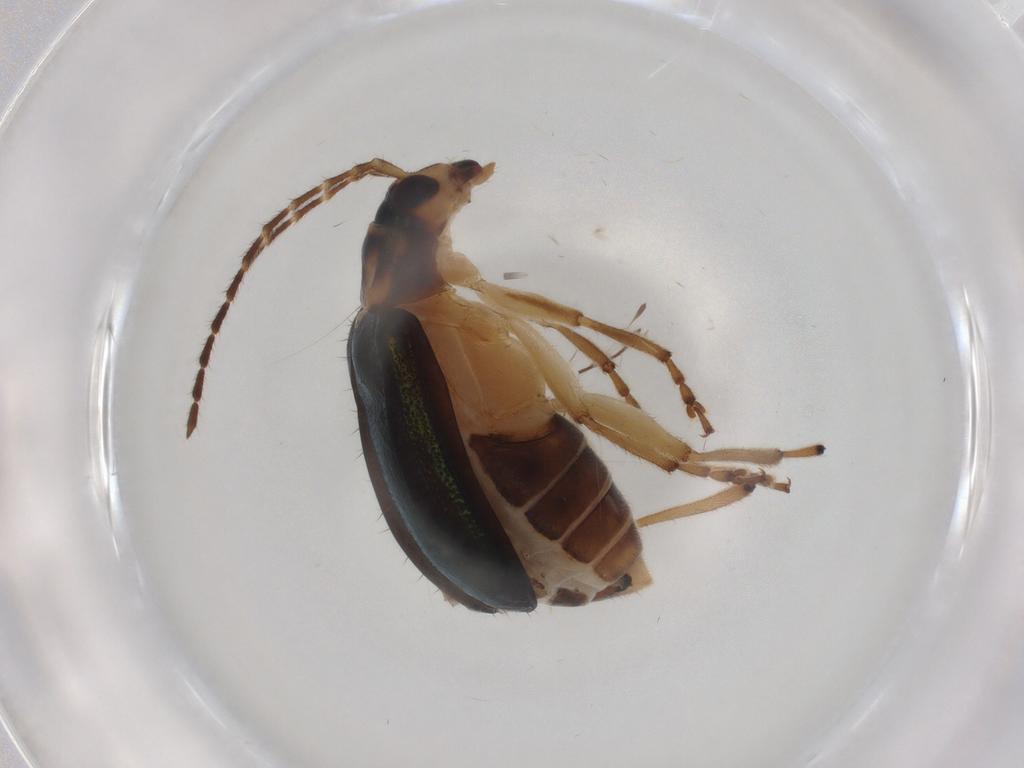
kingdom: Animalia
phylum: Arthropoda
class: Insecta
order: Coleoptera
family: Chrysomelidae
